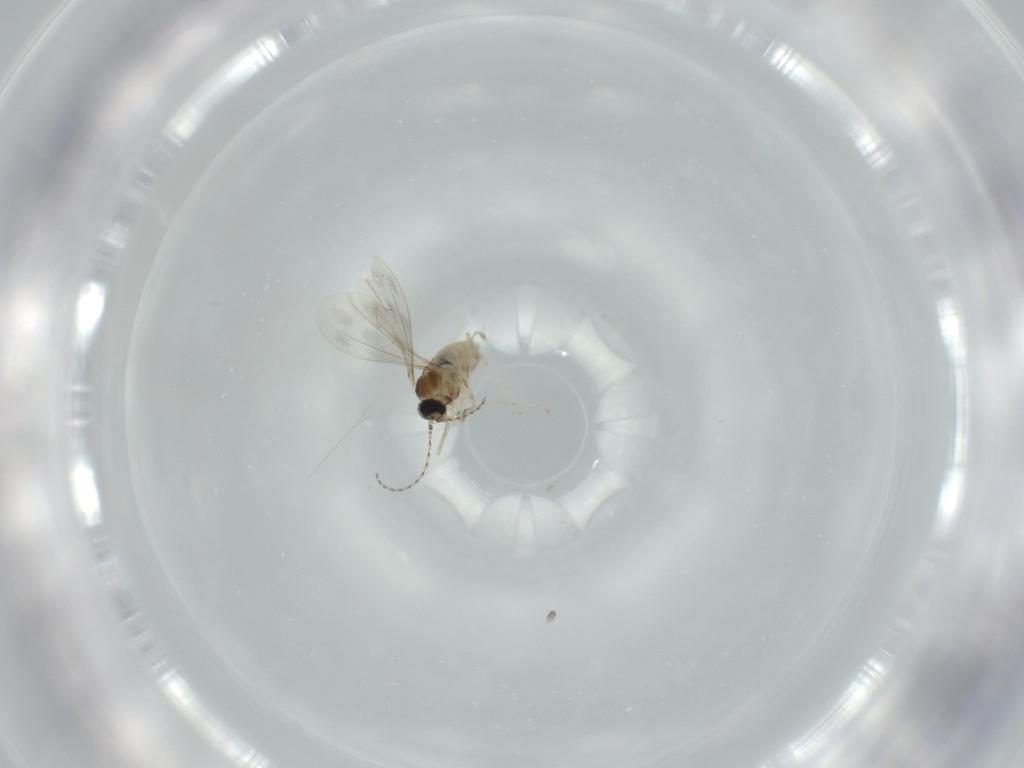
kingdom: Animalia
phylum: Arthropoda
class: Insecta
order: Diptera
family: Cecidomyiidae
